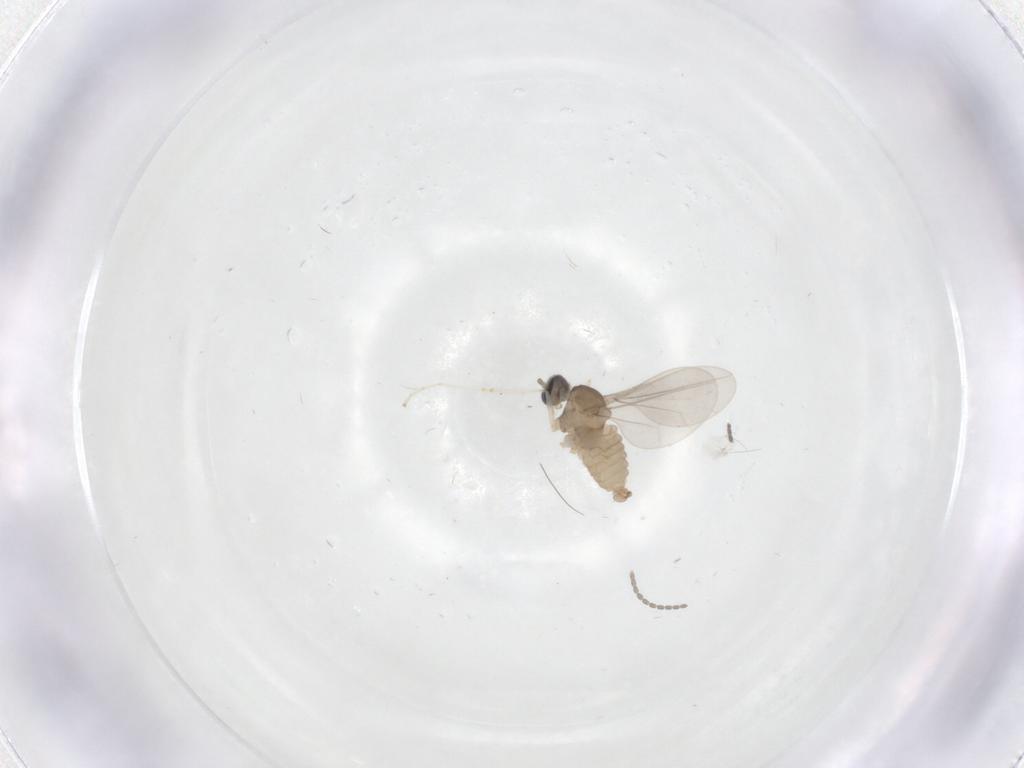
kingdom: Animalia
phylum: Arthropoda
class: Insecta
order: Diptera
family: Cecidomyiidae
